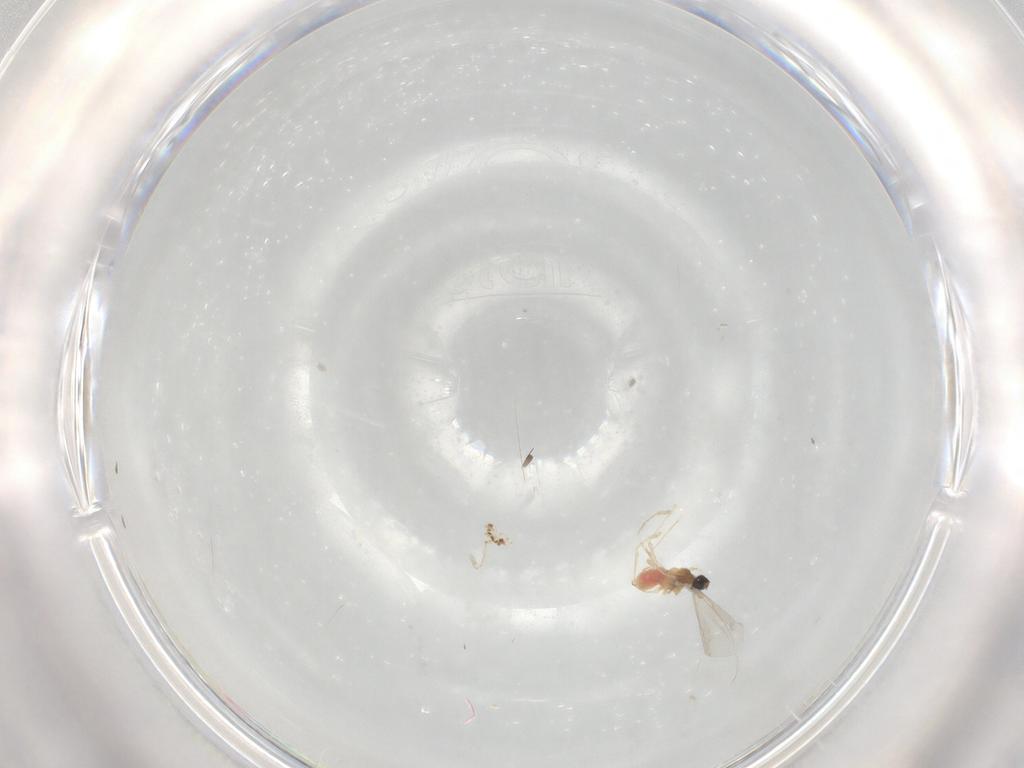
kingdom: Animalia
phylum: Arthropoda
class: Insecta
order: Diptera
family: Cecidomyiidae
